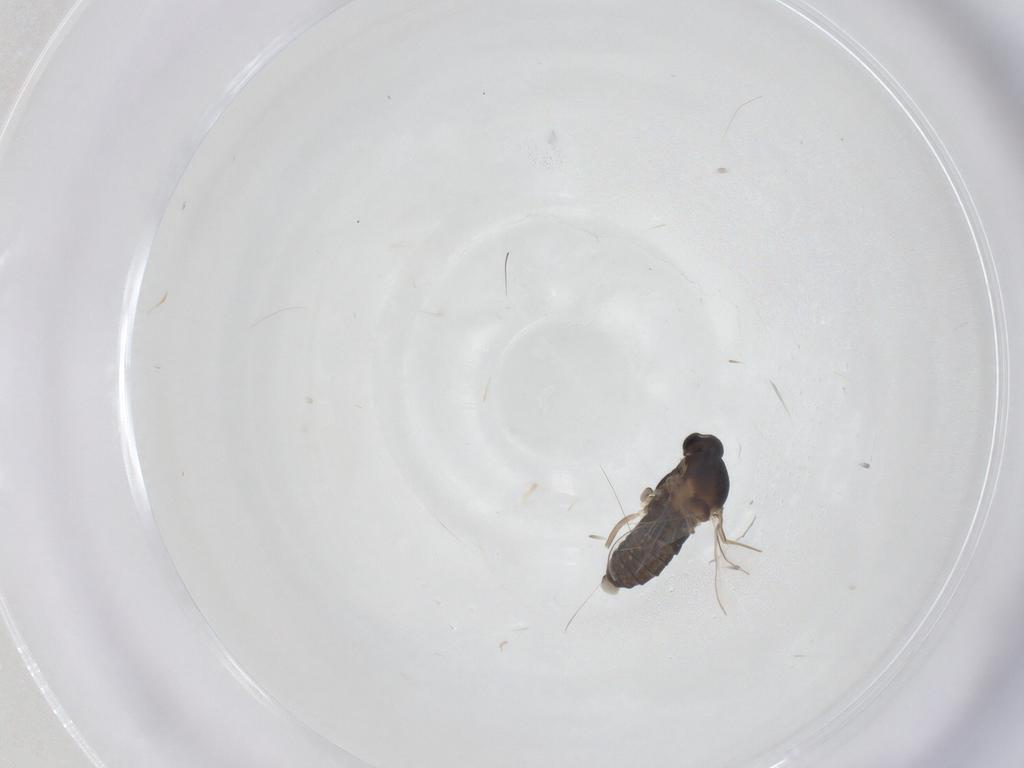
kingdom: Animalia
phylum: Arthropoda
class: Insecta
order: Diptera
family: Cecidomyiidae
